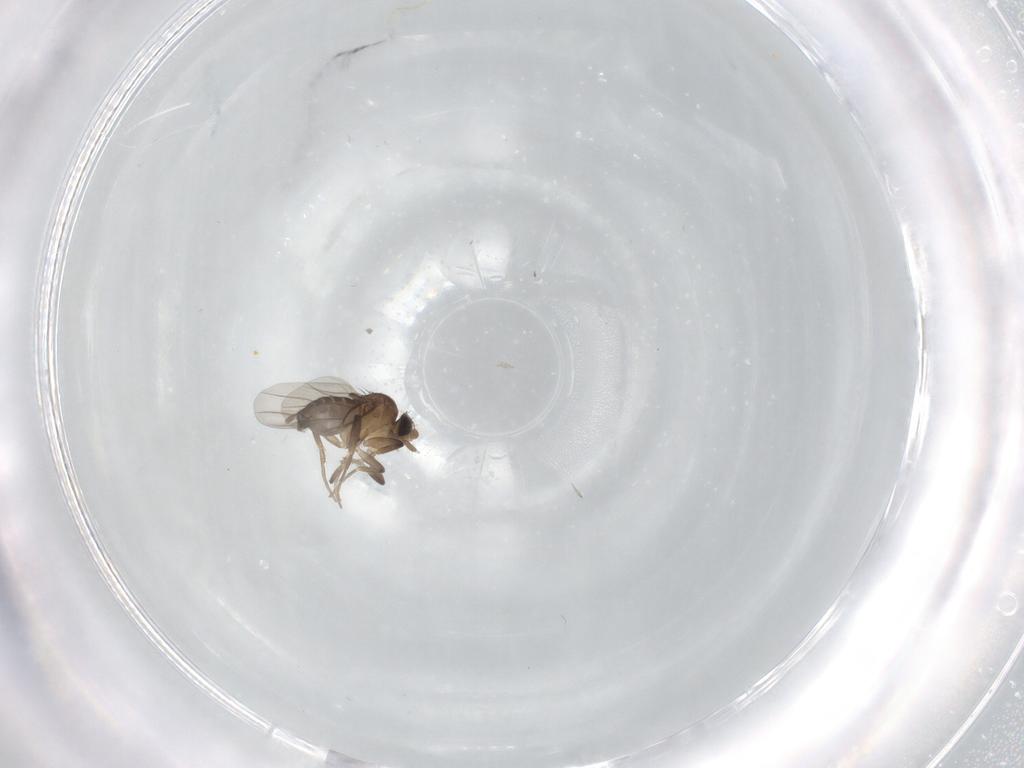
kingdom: Animalia
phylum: Arthropoda
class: Insecta
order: Diptera
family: Phoridae
